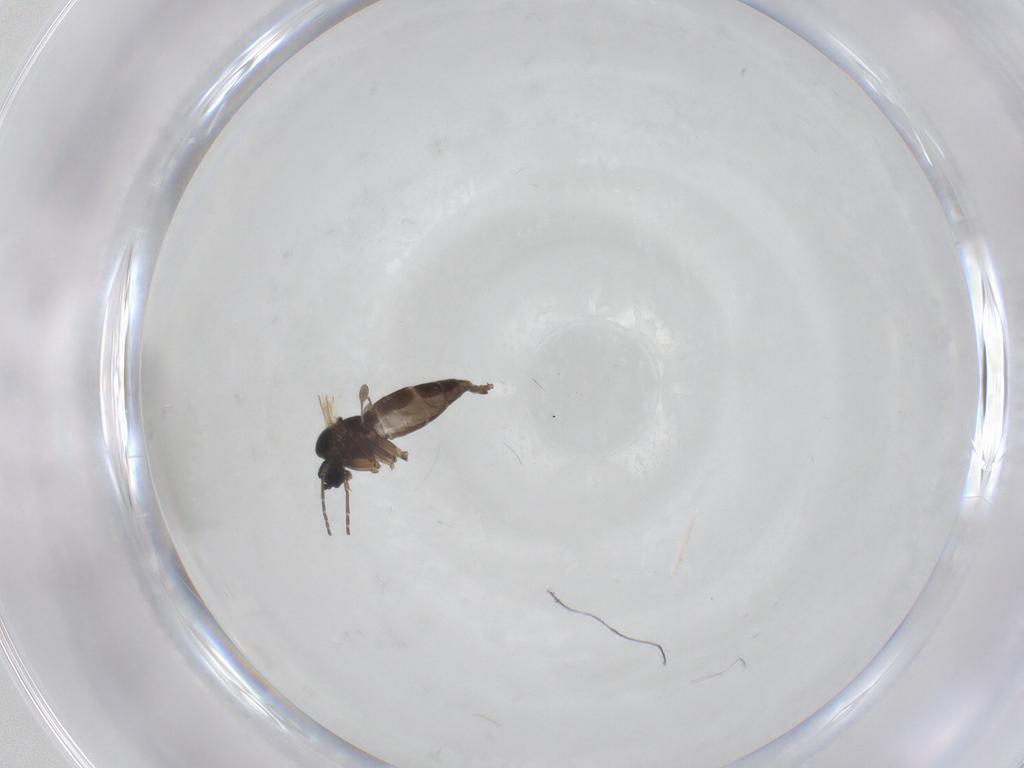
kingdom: Animalia
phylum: Arthropoda
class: Insecta
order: Diptera
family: Sciaridae
